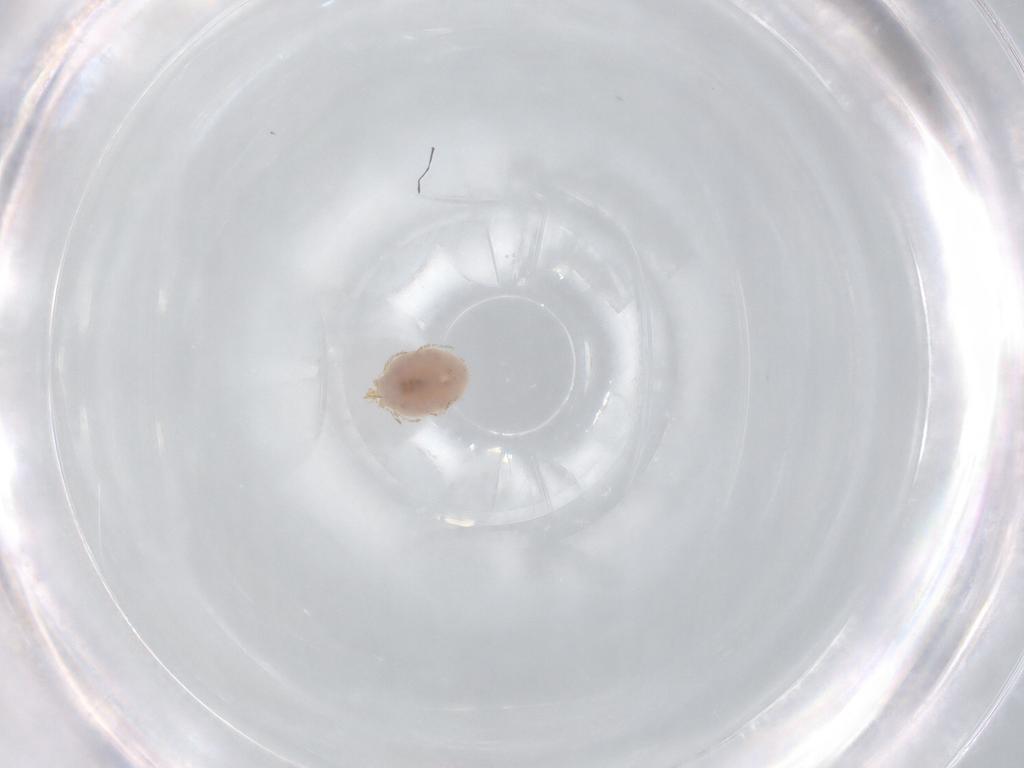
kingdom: Animalia
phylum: Arthropoda
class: Arachnida
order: Trombidiformes
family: Erythraeidae
